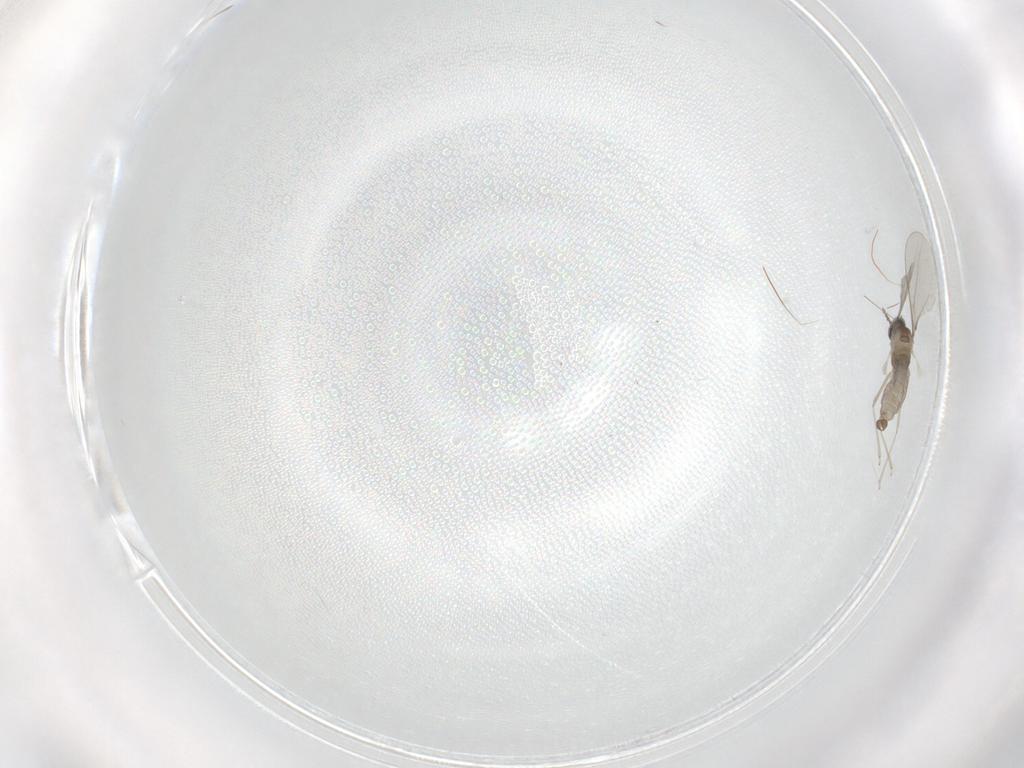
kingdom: Animalia
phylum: Arthropoda
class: Insecta
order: Diptera
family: Cecidomyiidae
